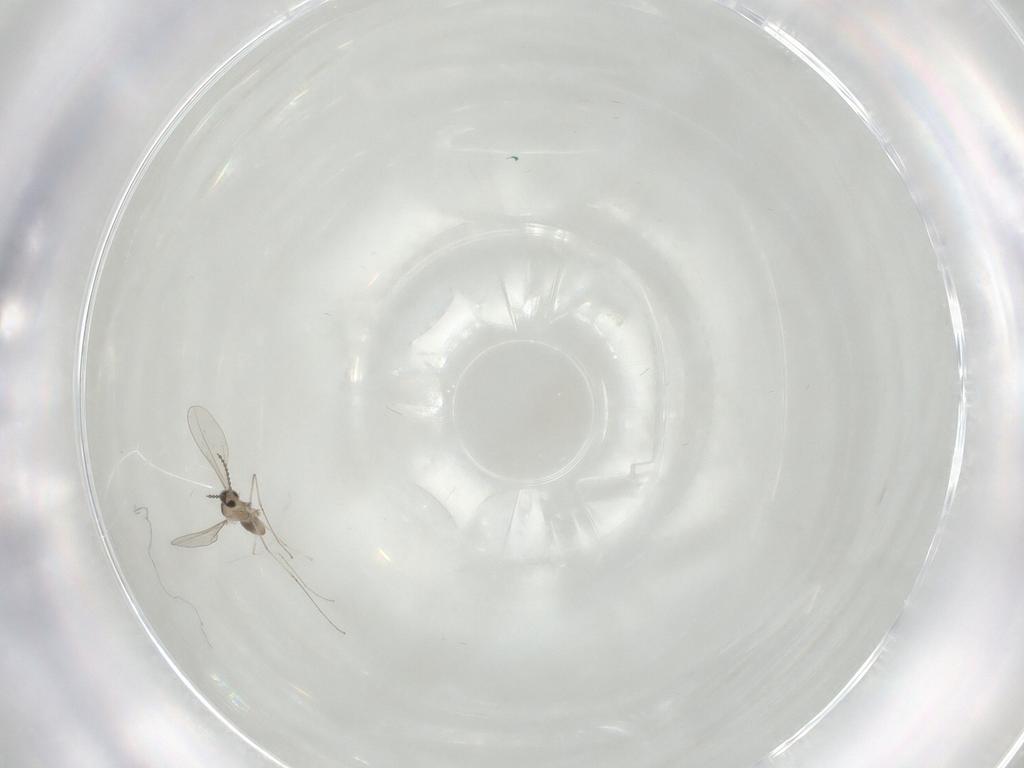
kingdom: Animalia
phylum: Arthropoda
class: Insecta
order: Diptera
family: Cecidomyiidae
